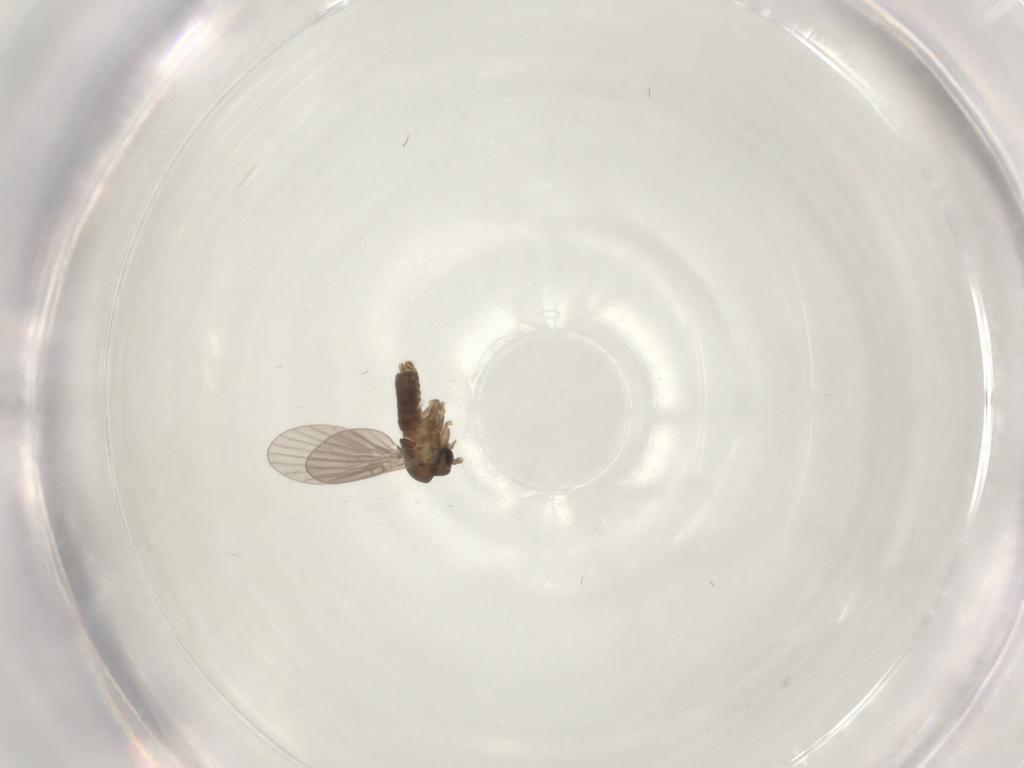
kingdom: Animalia
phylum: Arthropoda
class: Insecta
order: Diptera
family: Psychodidae
